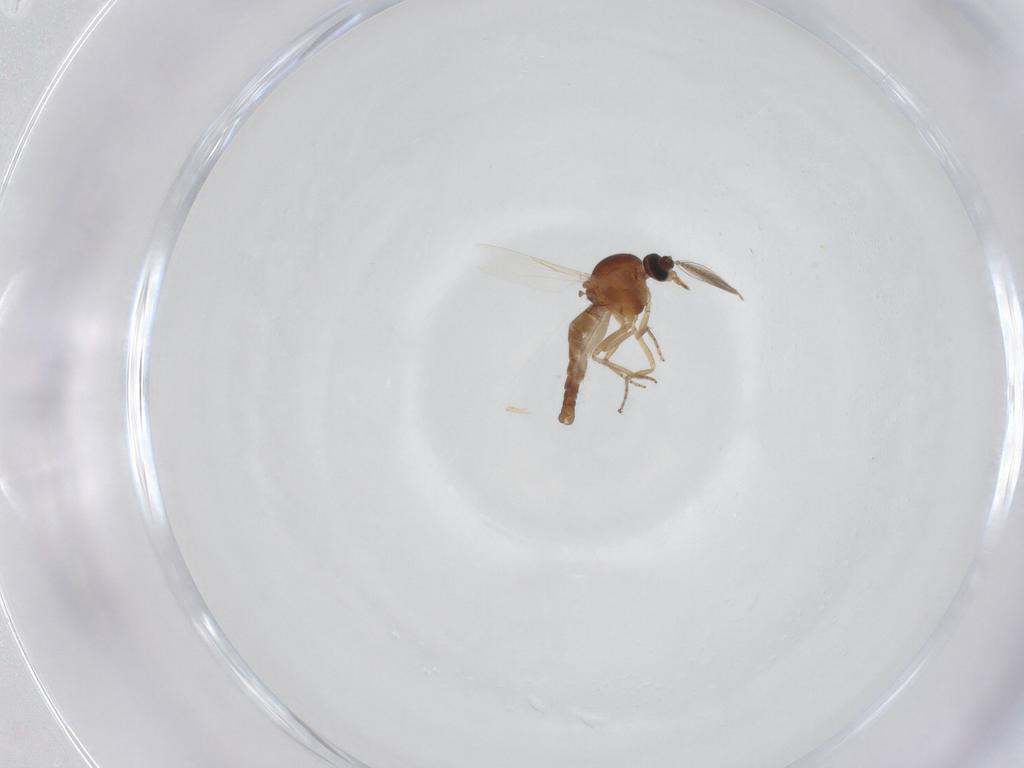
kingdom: Animalia
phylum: Arthropoda
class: Insecta
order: Diptera
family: Ceratopogonidae
